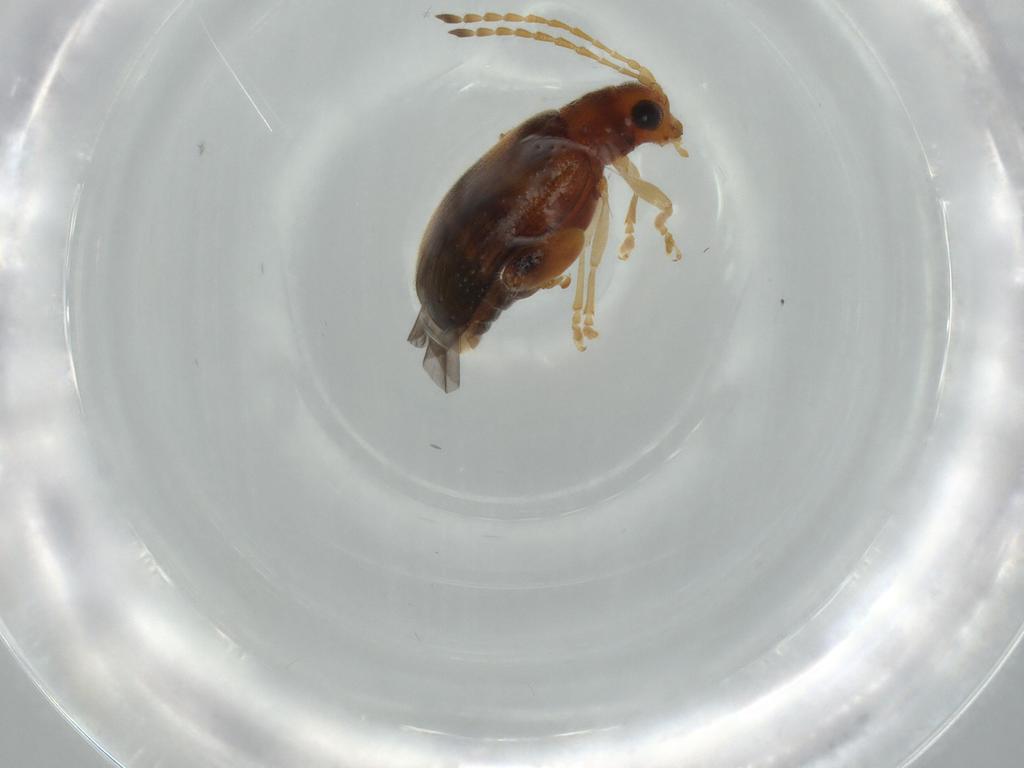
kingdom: Animalia
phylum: Arthropoda
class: Insecta
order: Coleoptera
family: Chrysomelidae
